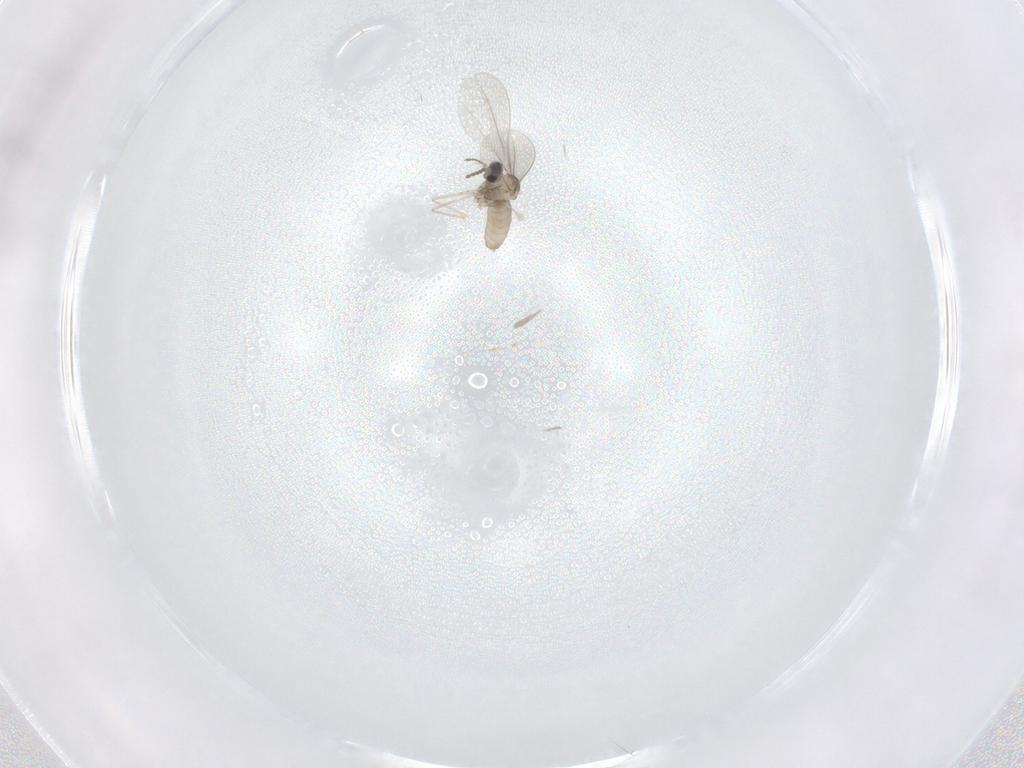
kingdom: Animalia
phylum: Arthropoda
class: Insecta
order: Diptera
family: Cecidomyiidae
